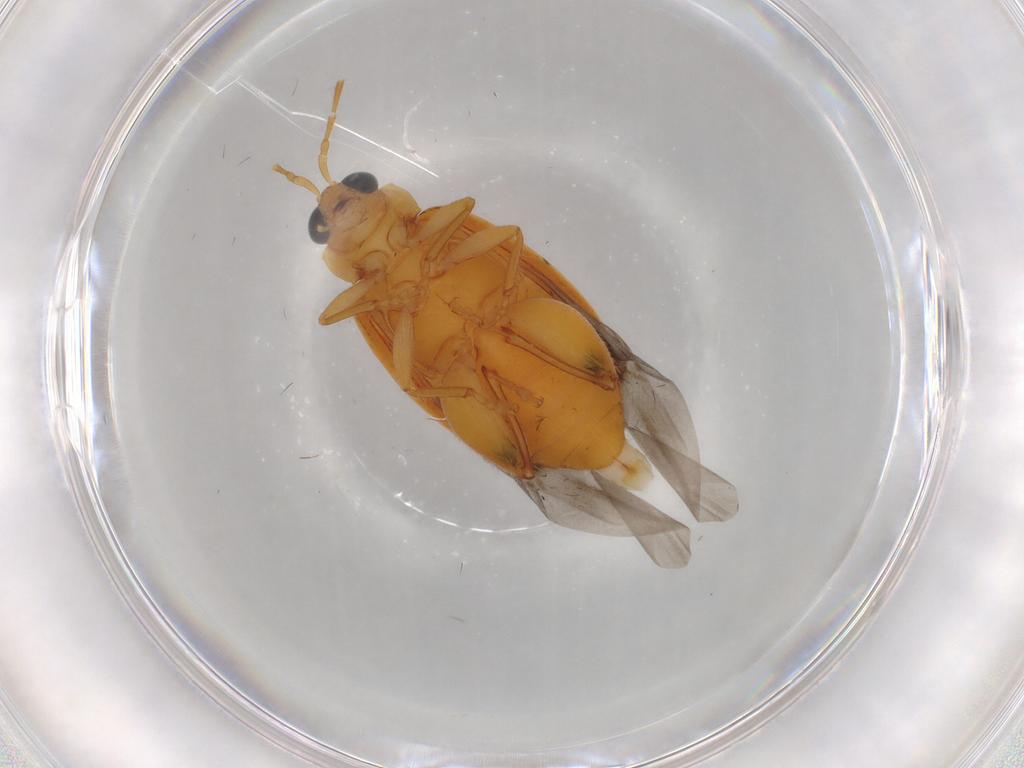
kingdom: Animalia
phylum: Arthropoda
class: Insecta
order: Coleoptera
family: Chrysomelidae
